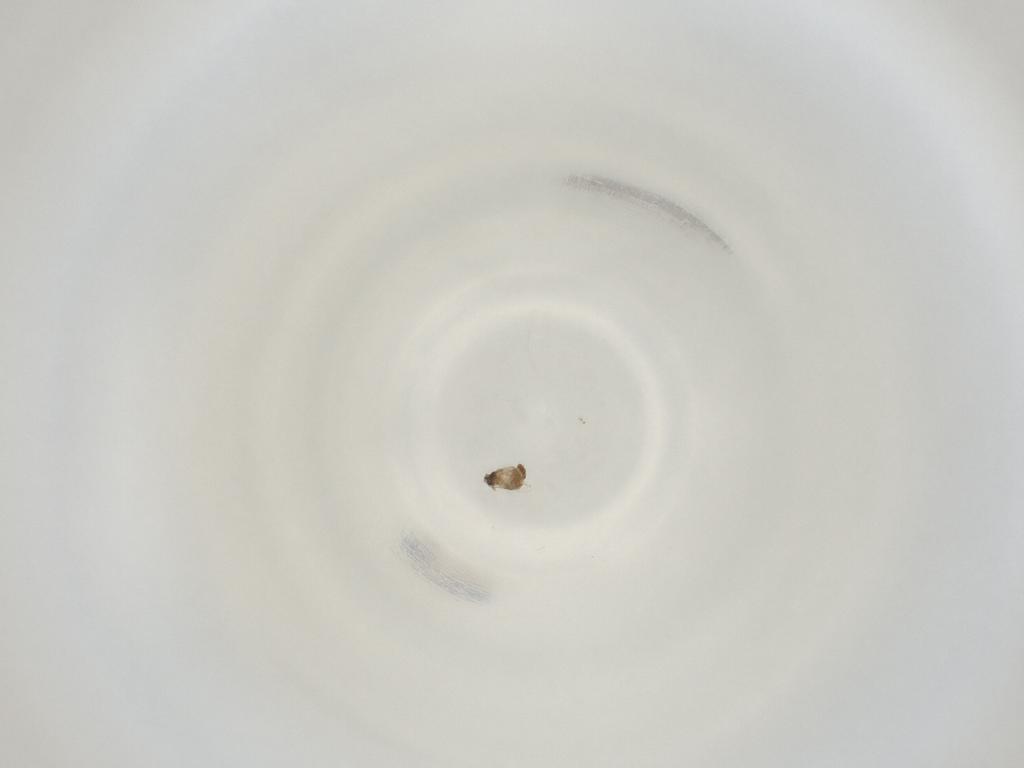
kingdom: Animalia
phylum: Arthropoda
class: Insecta
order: Diptera
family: Cecidomyiidae
